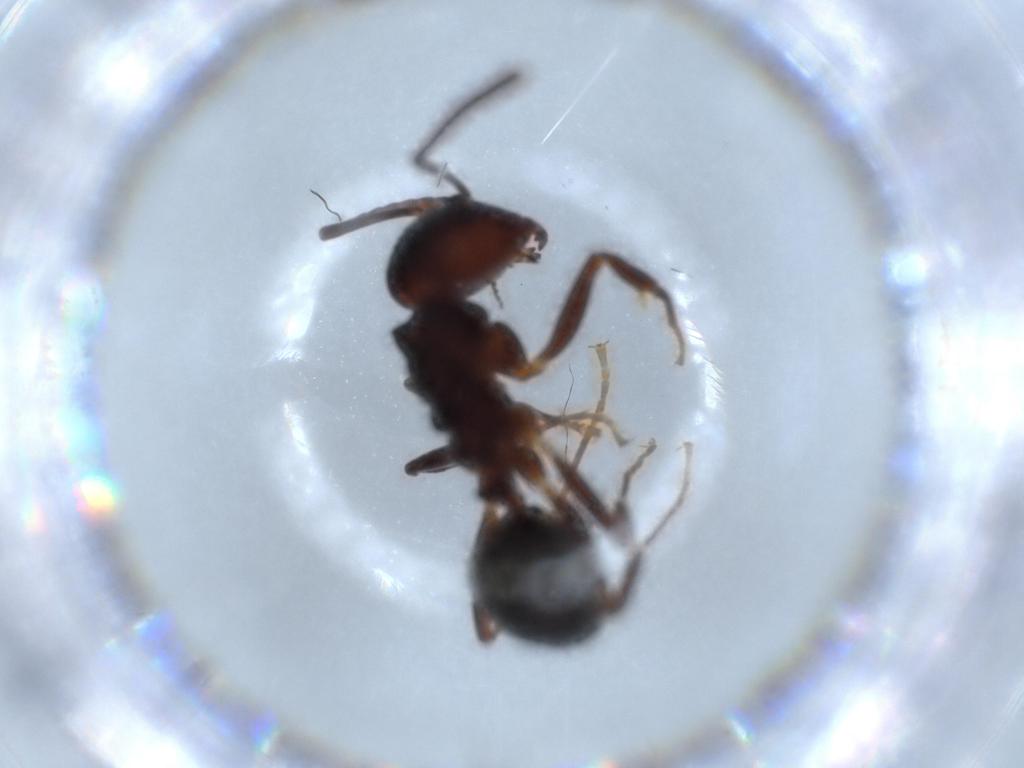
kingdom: Animalia
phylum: Arthropoda
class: Insecta
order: Hymenoptera
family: Formicidae
